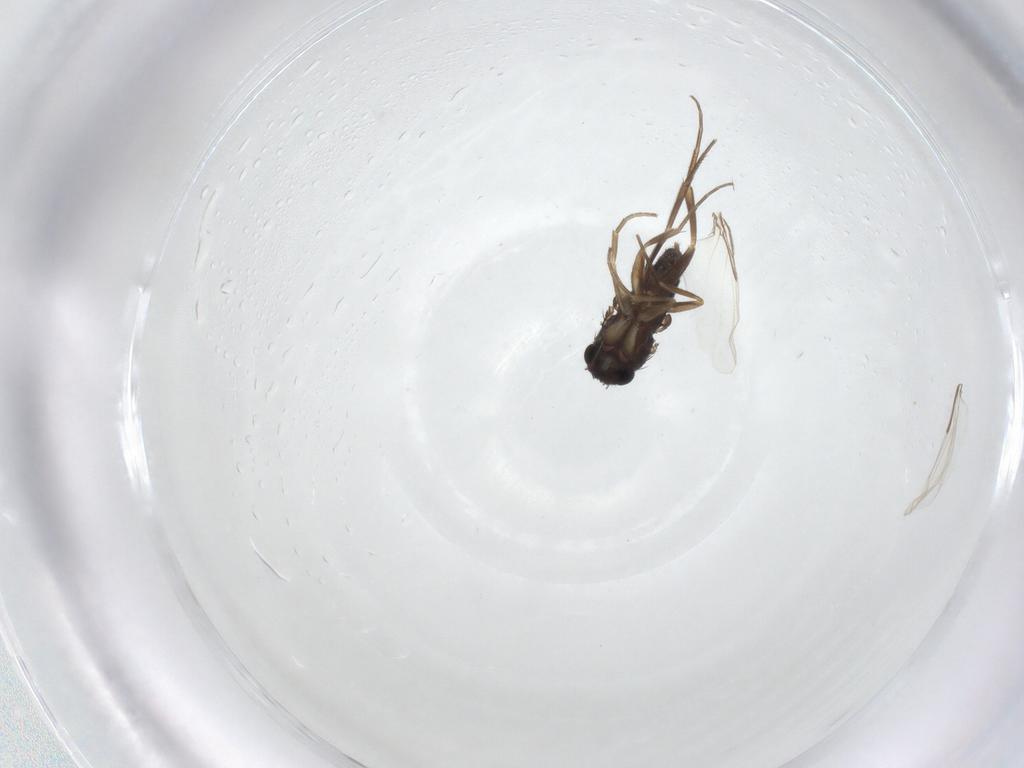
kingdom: Animalia
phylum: Arthropoda
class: Insecta
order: Diptera
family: Phoridae
